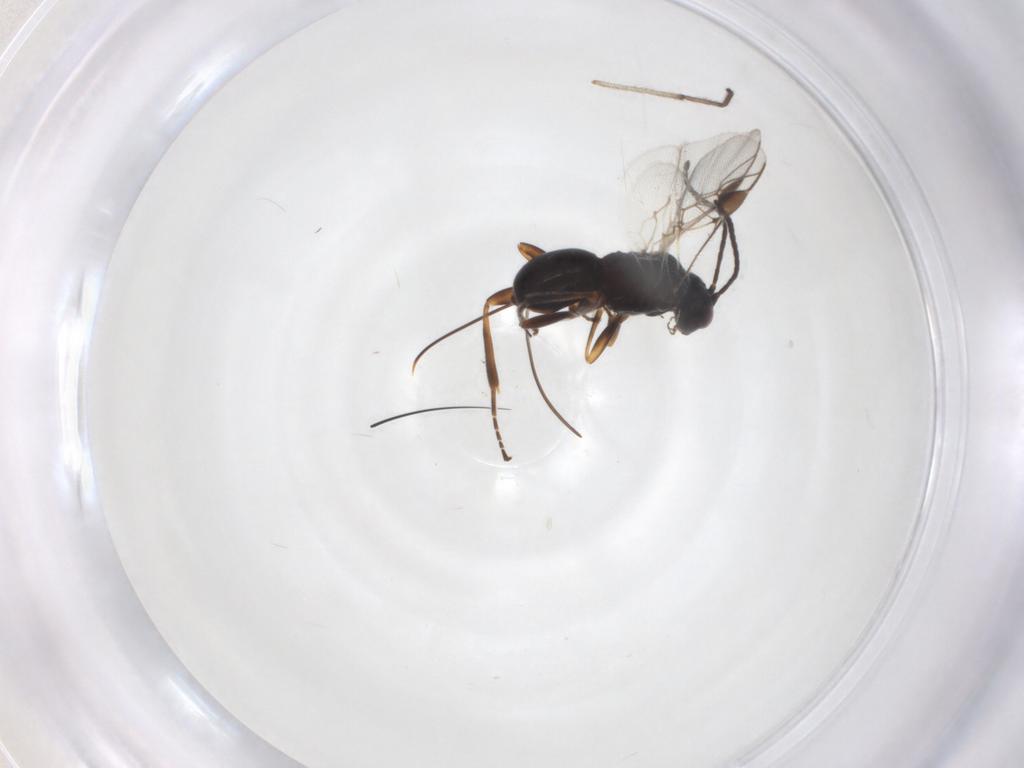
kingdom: Animalia
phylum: Arthropoda
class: Insecta
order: Hymenoptera
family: Braconidae
